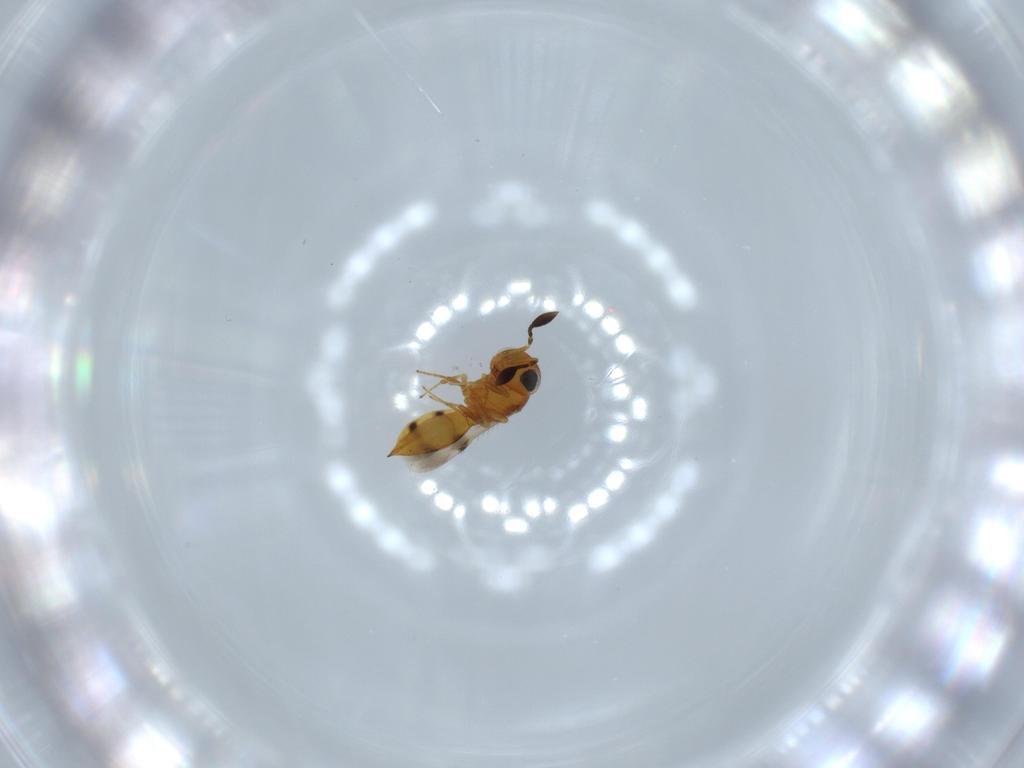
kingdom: Animalia
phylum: Arthropoda
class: Insecta
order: Hymenoptera
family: Scelionidae
